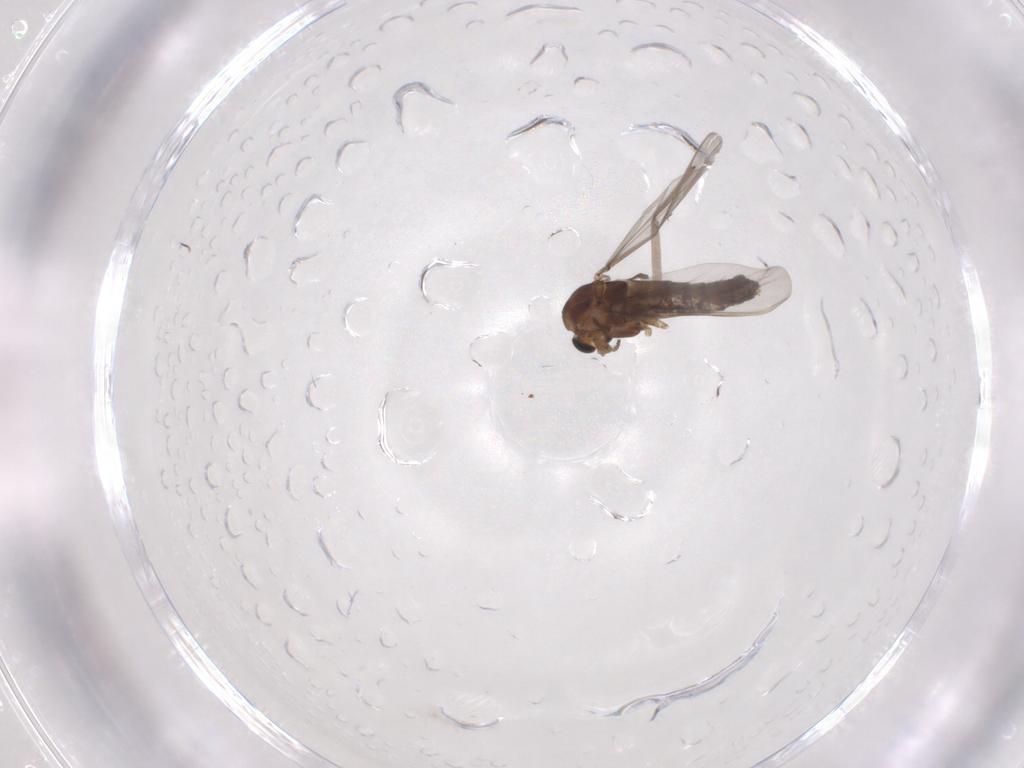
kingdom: Animalia
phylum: Arthropoda
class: Insecta
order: Diptera
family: Chironomidae
